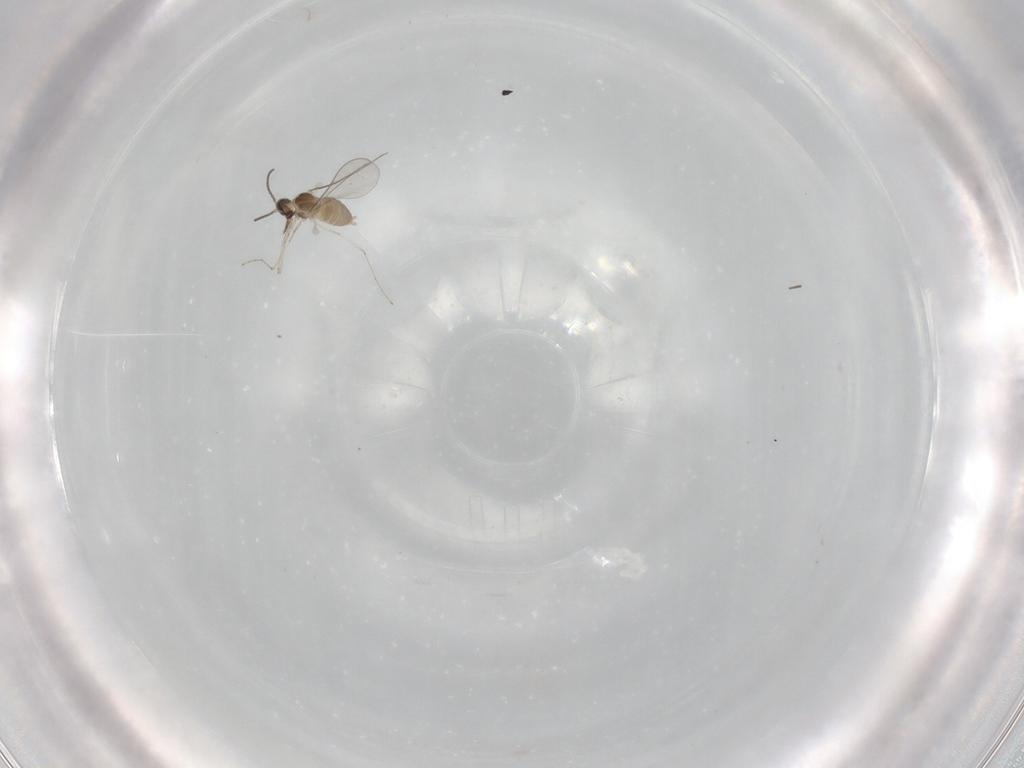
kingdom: Animalia
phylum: Arthropoda
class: Insecta
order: Diptera
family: Cecidomyiidae
